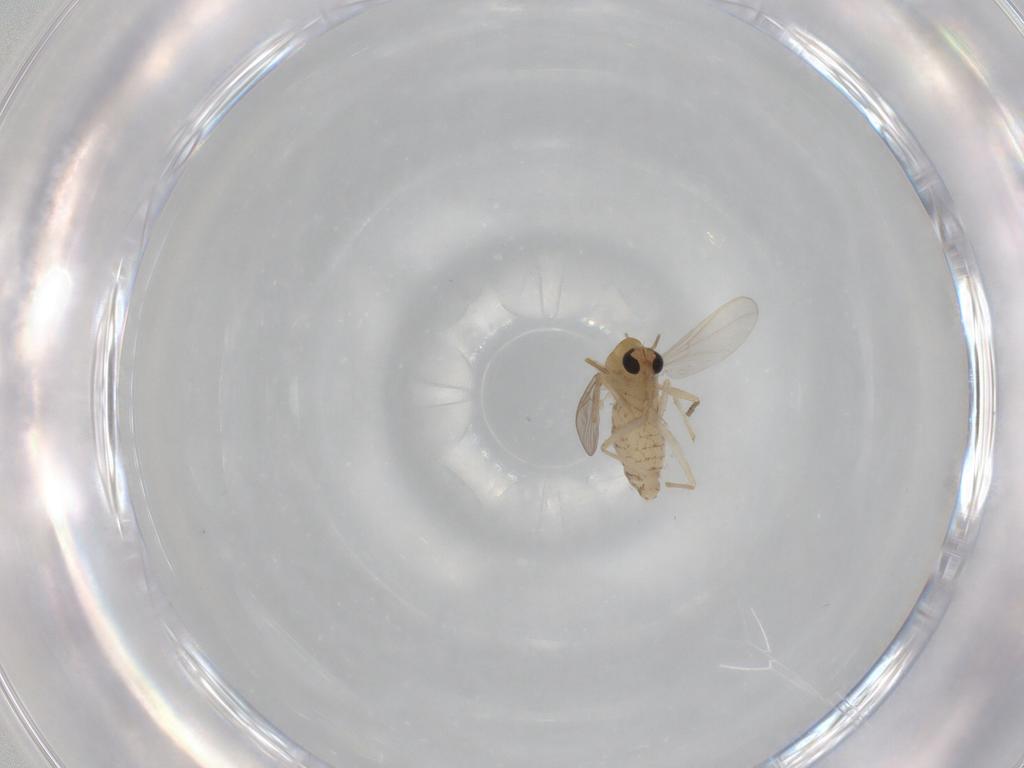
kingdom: Animalia
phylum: Arthropoda
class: Insecta
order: Diptera
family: Chironomidae
